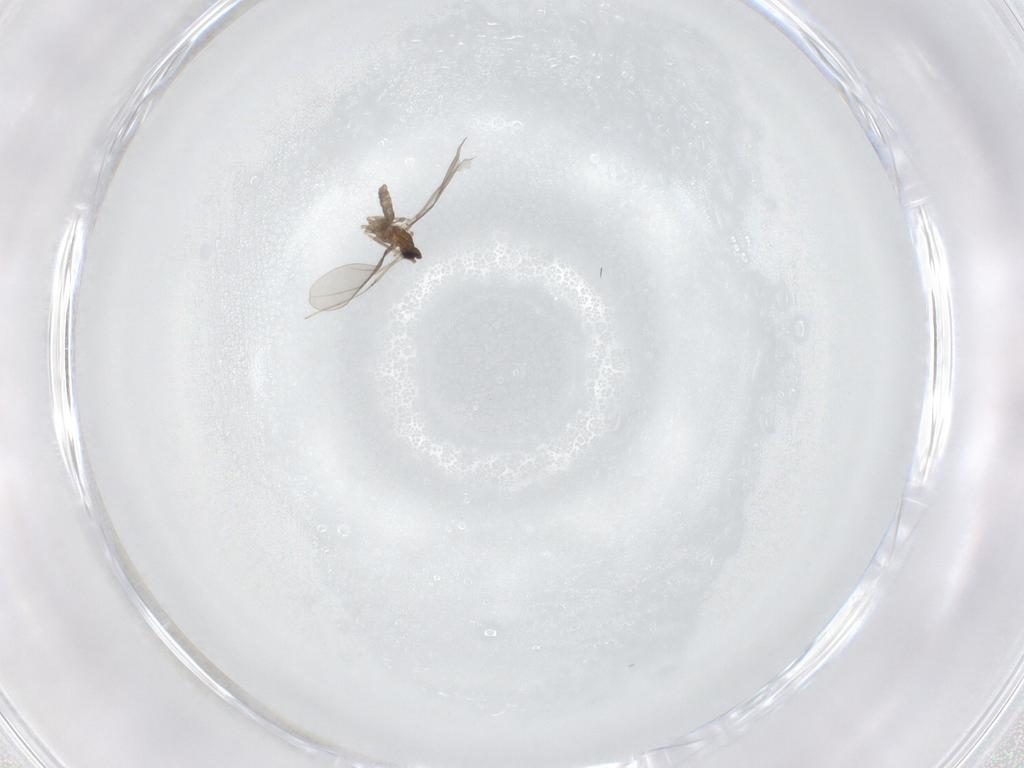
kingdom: Animalia
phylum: Arthropoda
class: Insecta
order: Diptera
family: Cecidomyiidae
